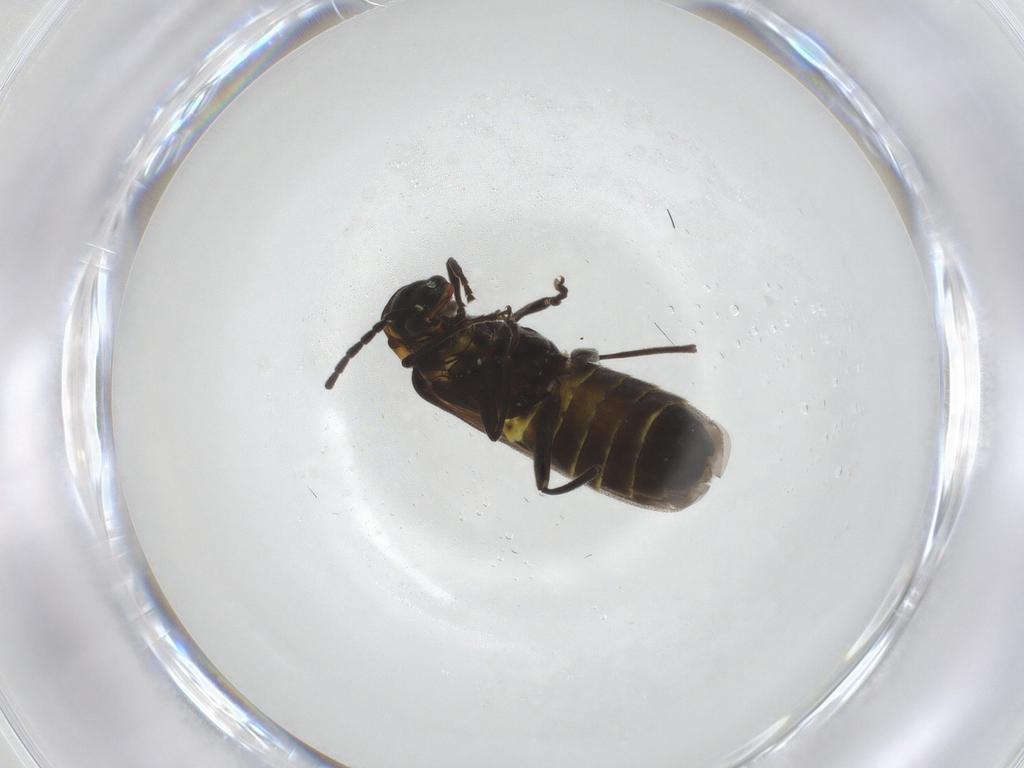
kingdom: Animalia
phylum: Arthropoda
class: Insecta
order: Coleoptera
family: Cantharidae
